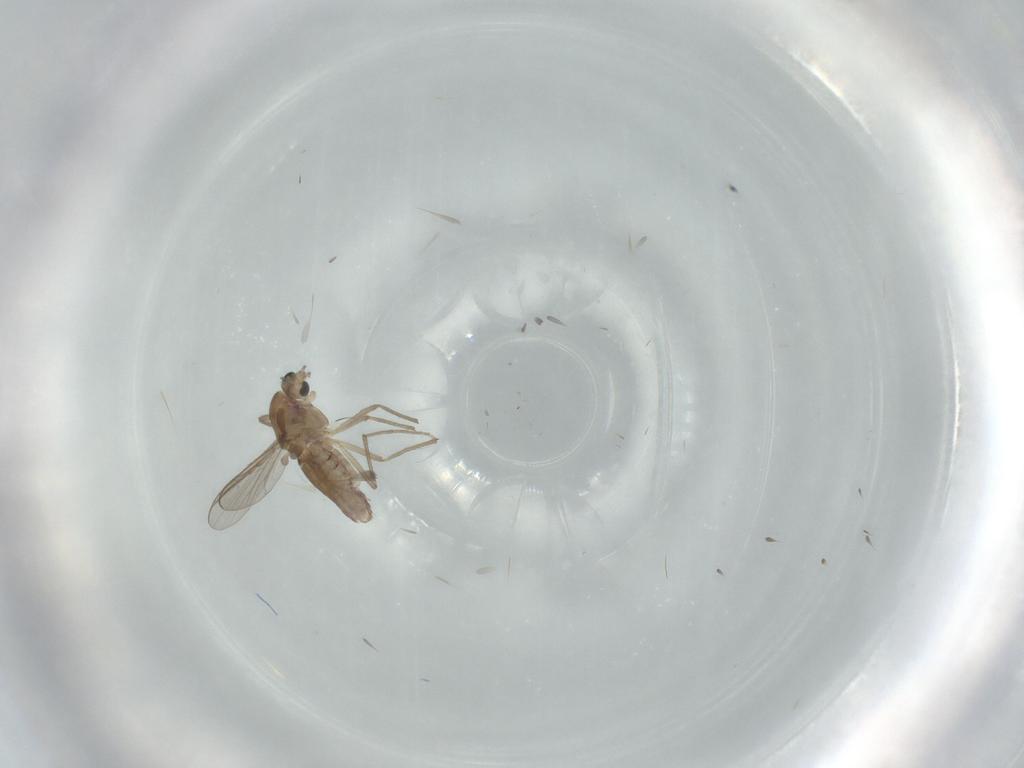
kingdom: Animalia
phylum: Arthropoda
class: Insecta
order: Diptera
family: Chironomidae
